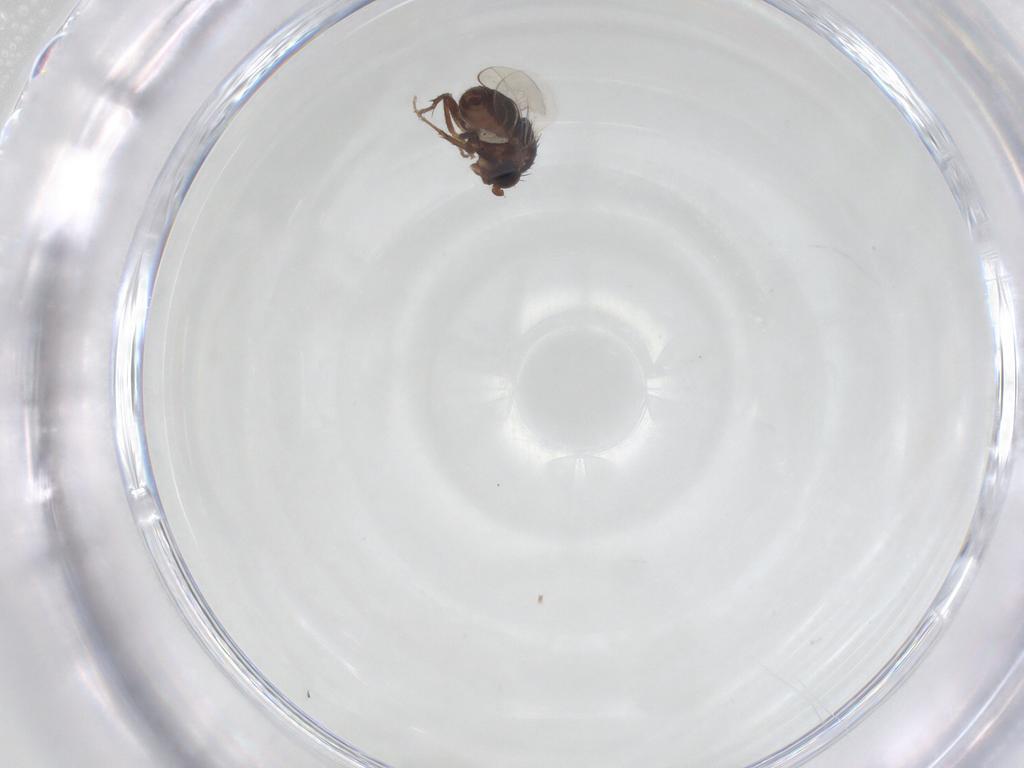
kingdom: Animalia
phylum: Arthropoda
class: Insecta
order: Diptera
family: Sphaeroceridae
